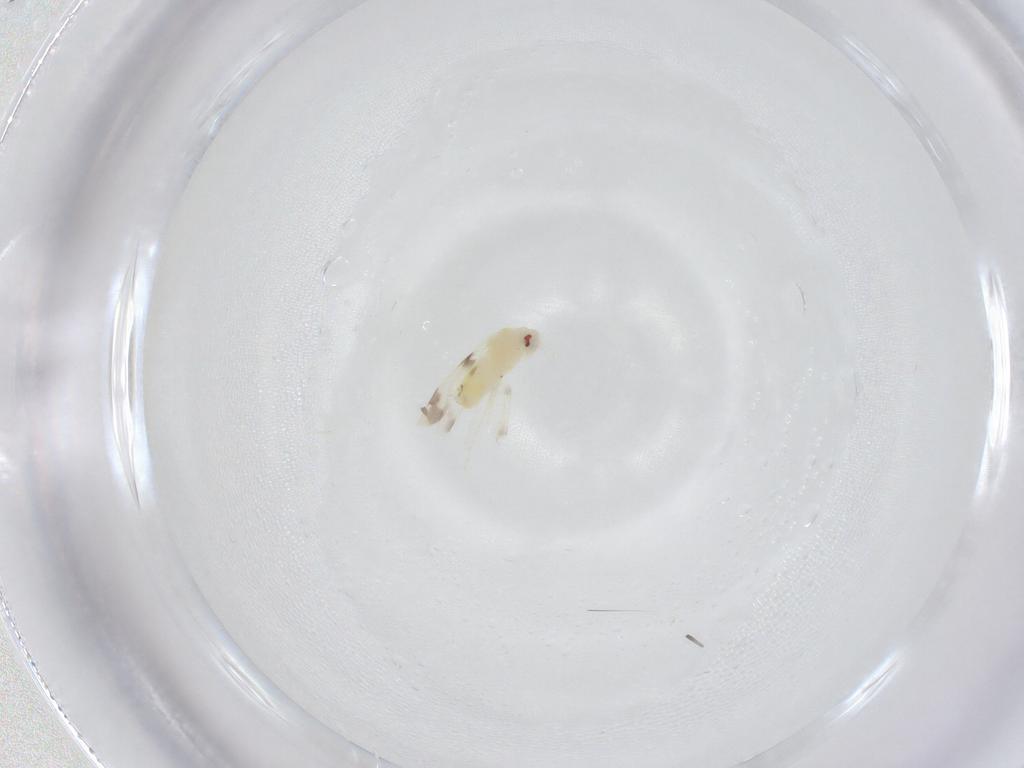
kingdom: Animalia
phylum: Arthropoda
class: Insecta
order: Hemiptera
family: Aleyrodidae
